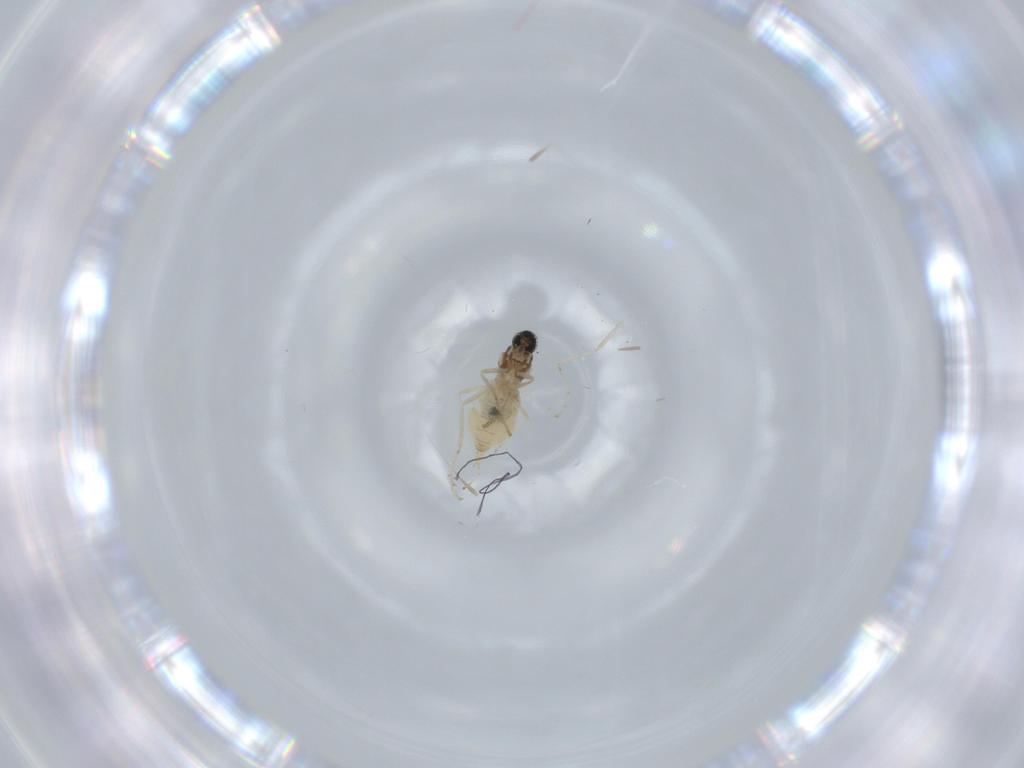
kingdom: Animalia
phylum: Arthropoda
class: Insecta
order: Diptera
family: Cecidomyiidae
